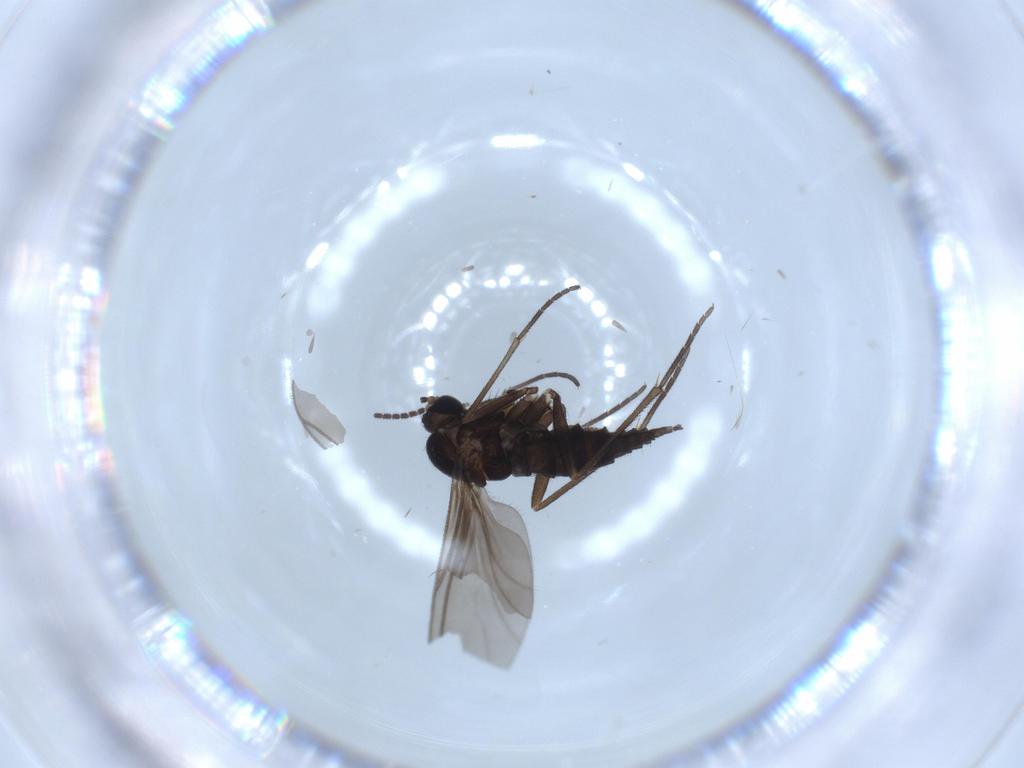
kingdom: Animalia
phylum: Arthropoda
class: Insecta
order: Diptera
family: Sciaridae
